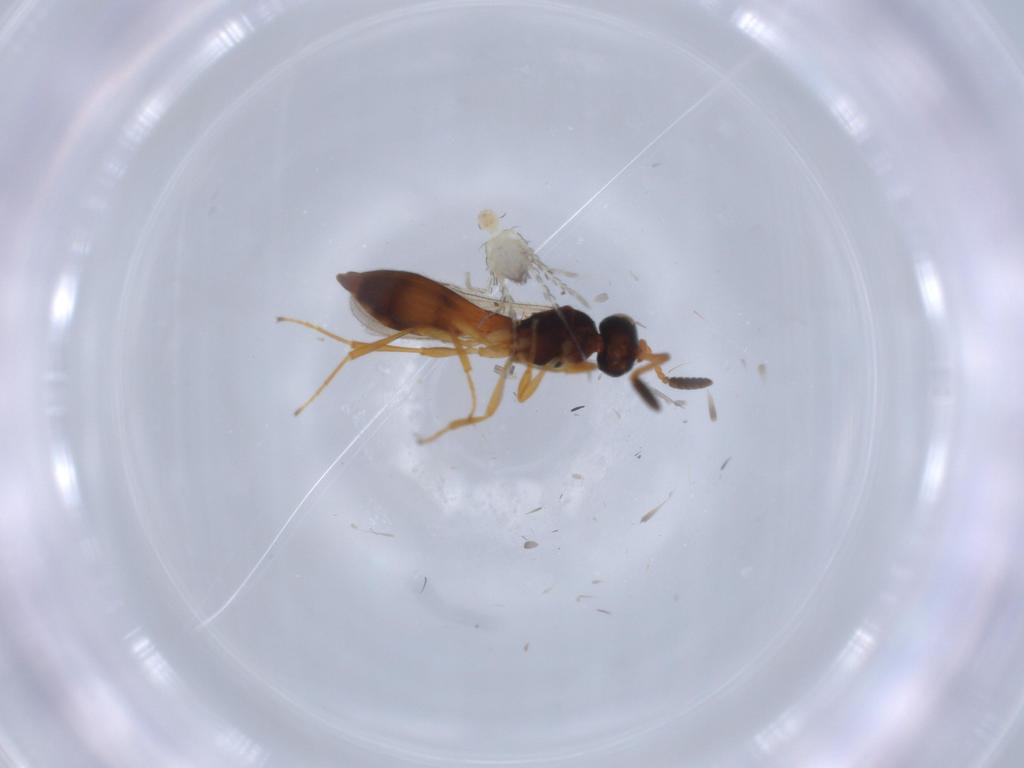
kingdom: Animalia
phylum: Arthropoda
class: Insecta
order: Hymenoptera
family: Scelionidae
